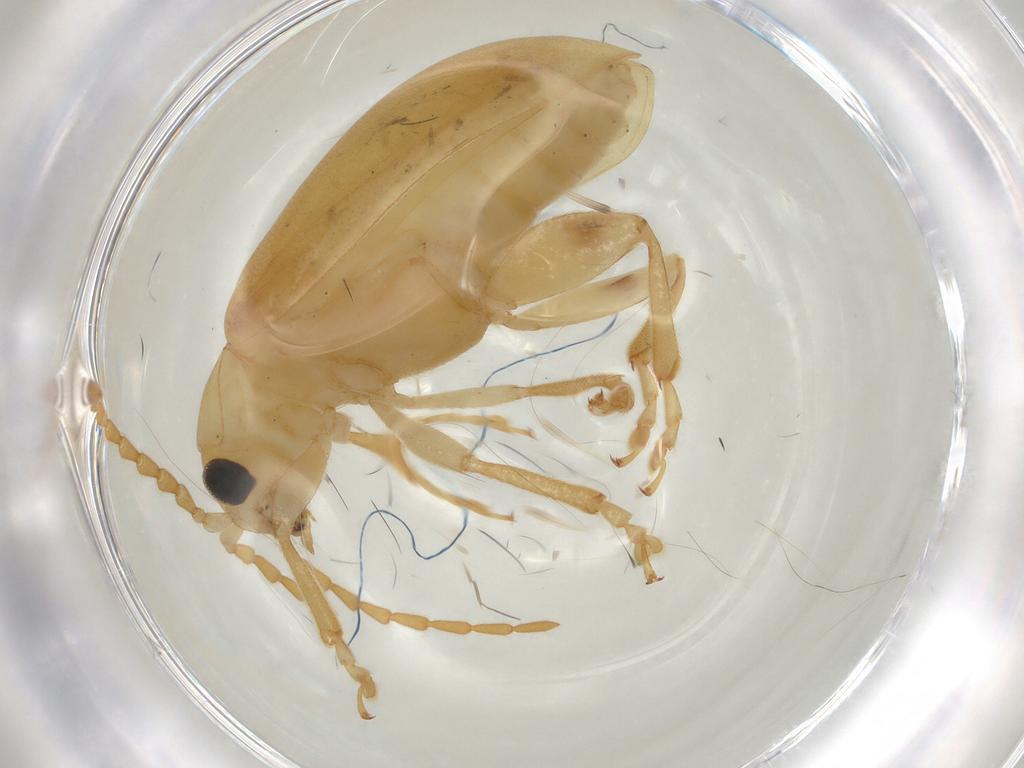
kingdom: Animalia
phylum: Arthropoda
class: Insecta
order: Coleoptera
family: Chrysomelidae
